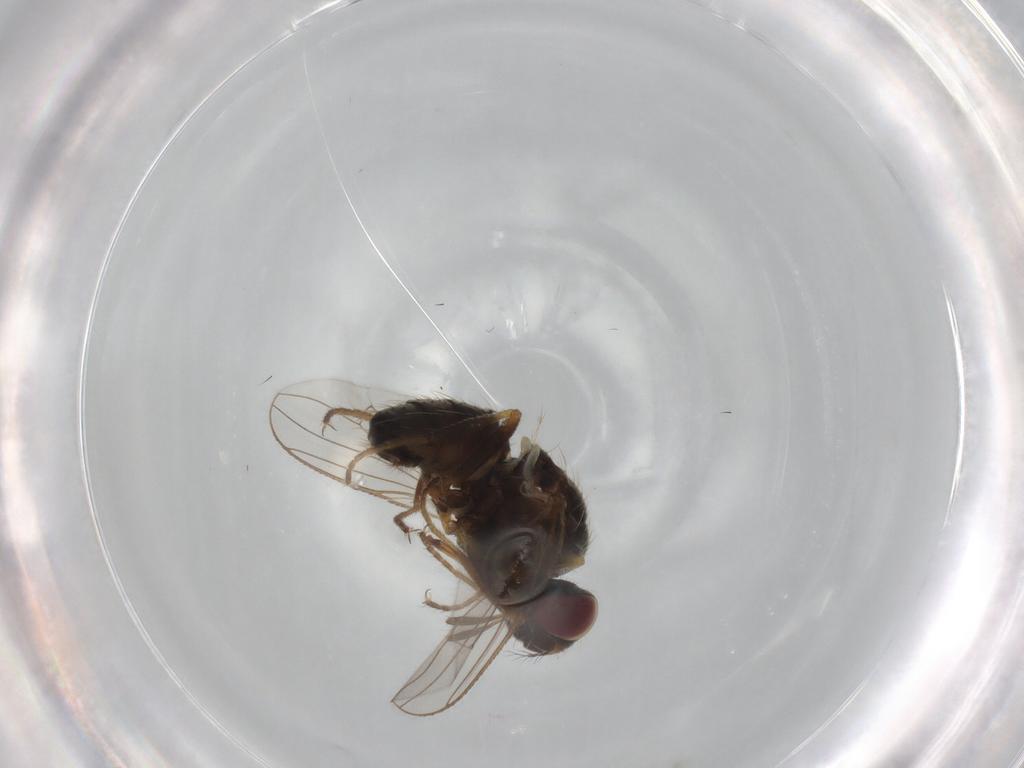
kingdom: Animalia
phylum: Arthropoda
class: Insecta
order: Diptera
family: Muscidae
